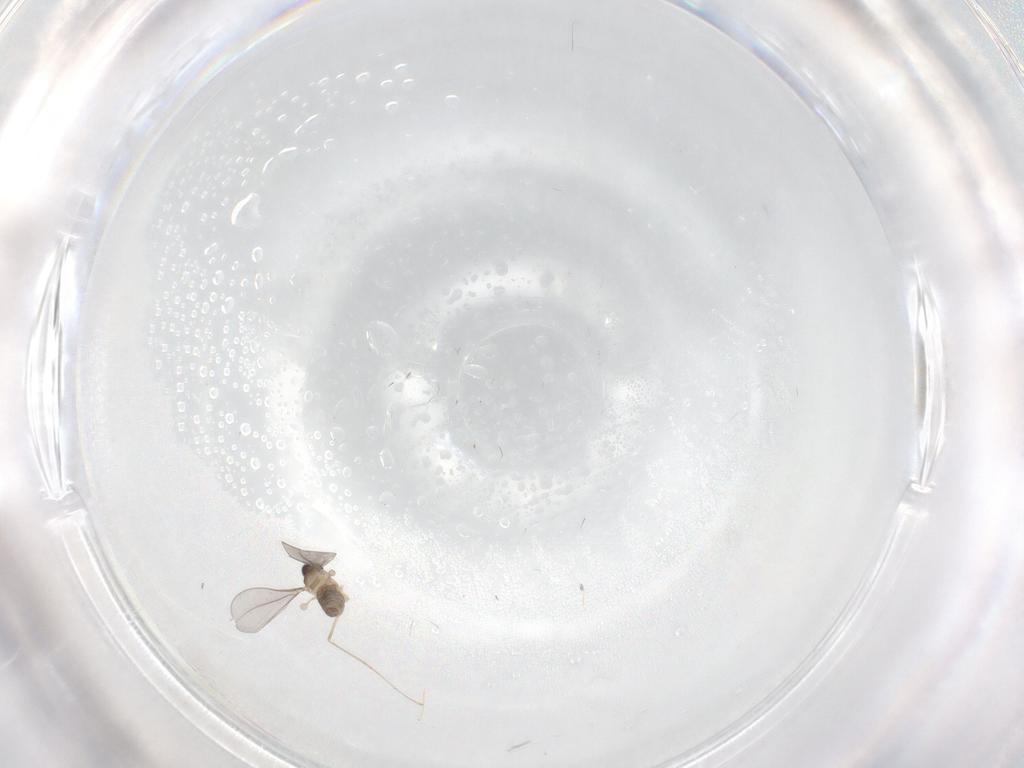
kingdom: Animalia
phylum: Arthropoda
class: Insecta
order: Diptera
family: Cecidomyiidae
